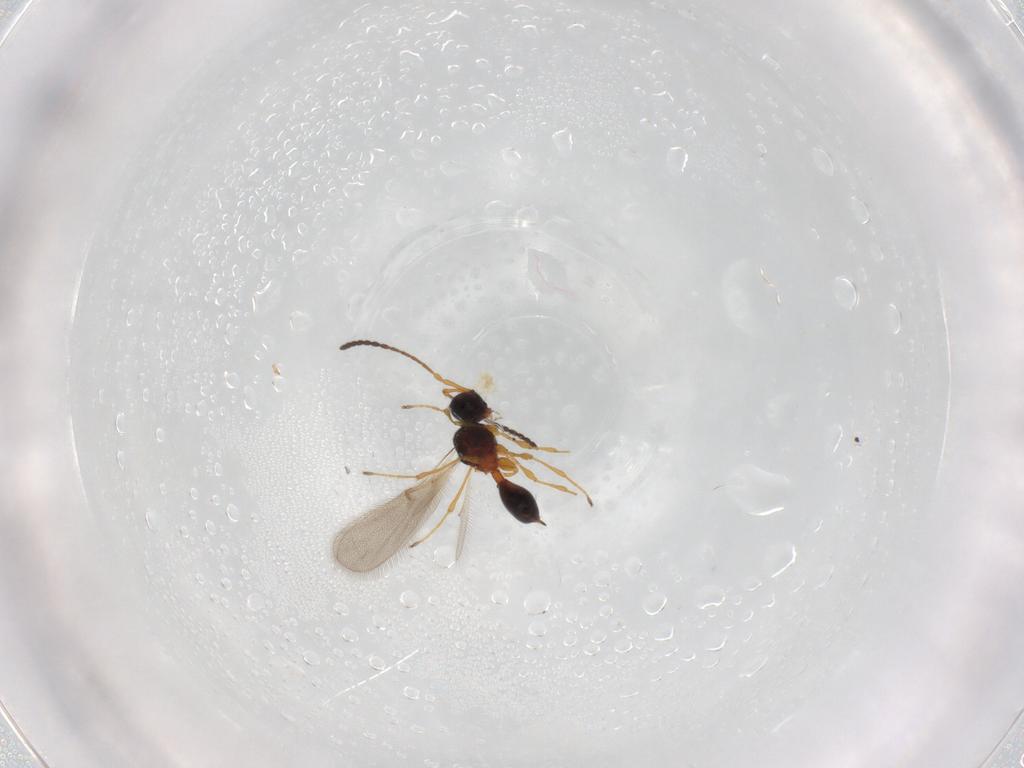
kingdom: Animalia
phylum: Arthropoda
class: Insecta
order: Hymenoptera
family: Diapriidae
